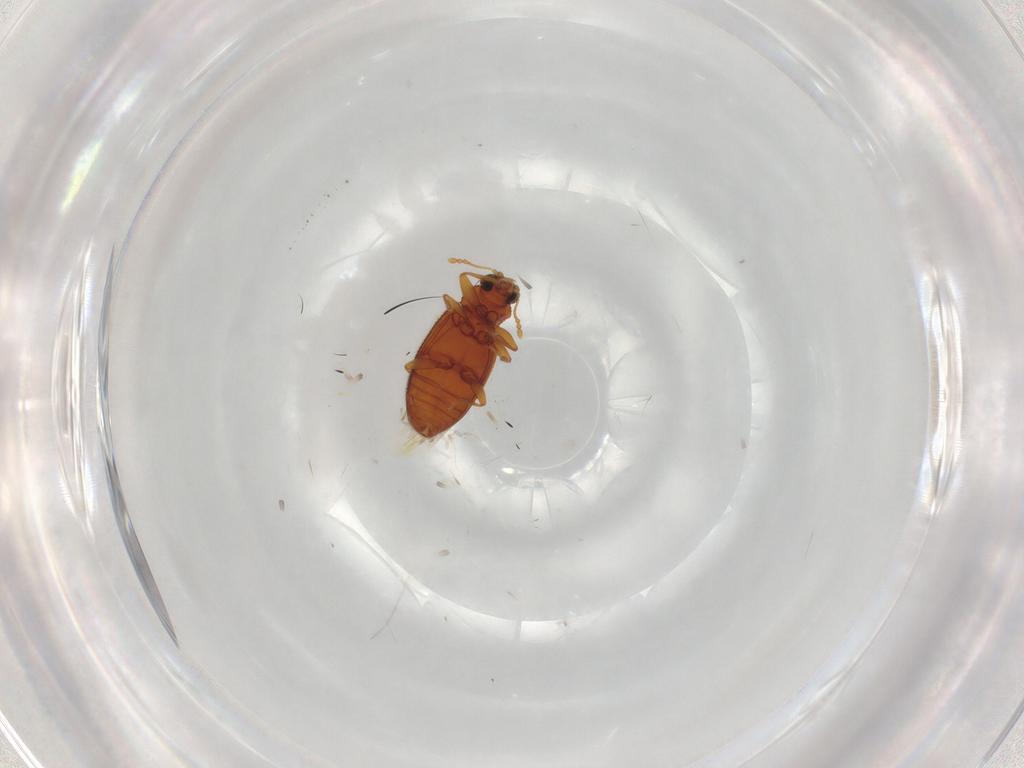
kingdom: Animalia
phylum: Arthropoda
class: Insecta
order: Coleoptera
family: Latridiidae
